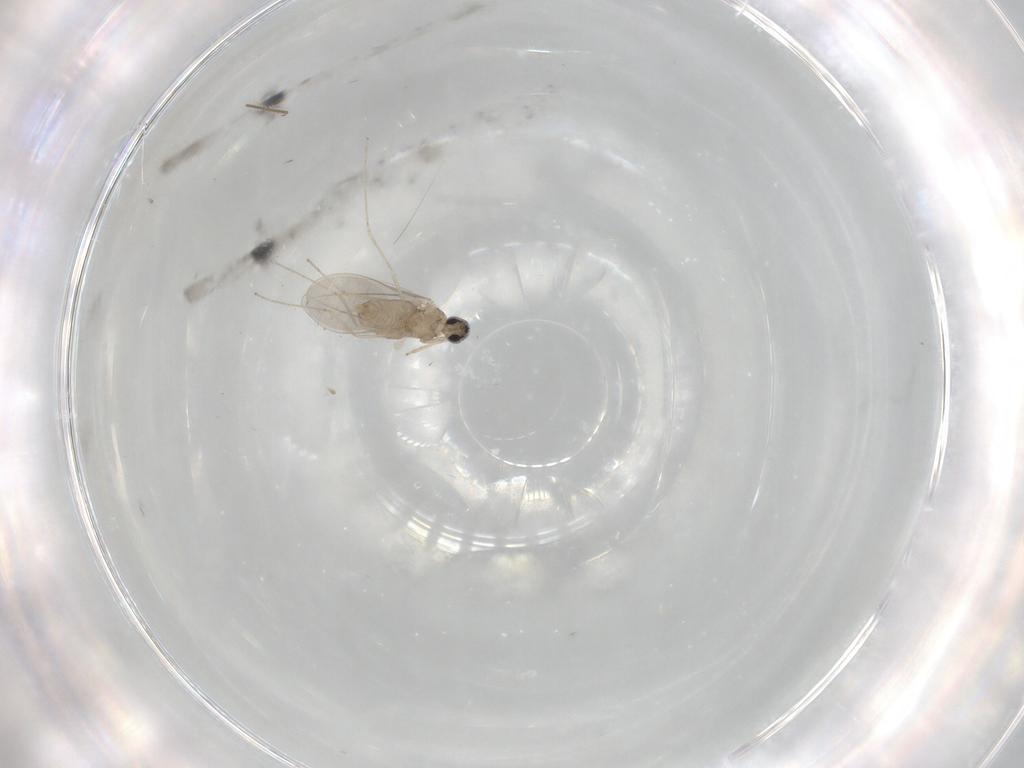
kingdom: Animalia
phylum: Arthropoda
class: Insecta
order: Diptera
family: Cecidomyiidae
